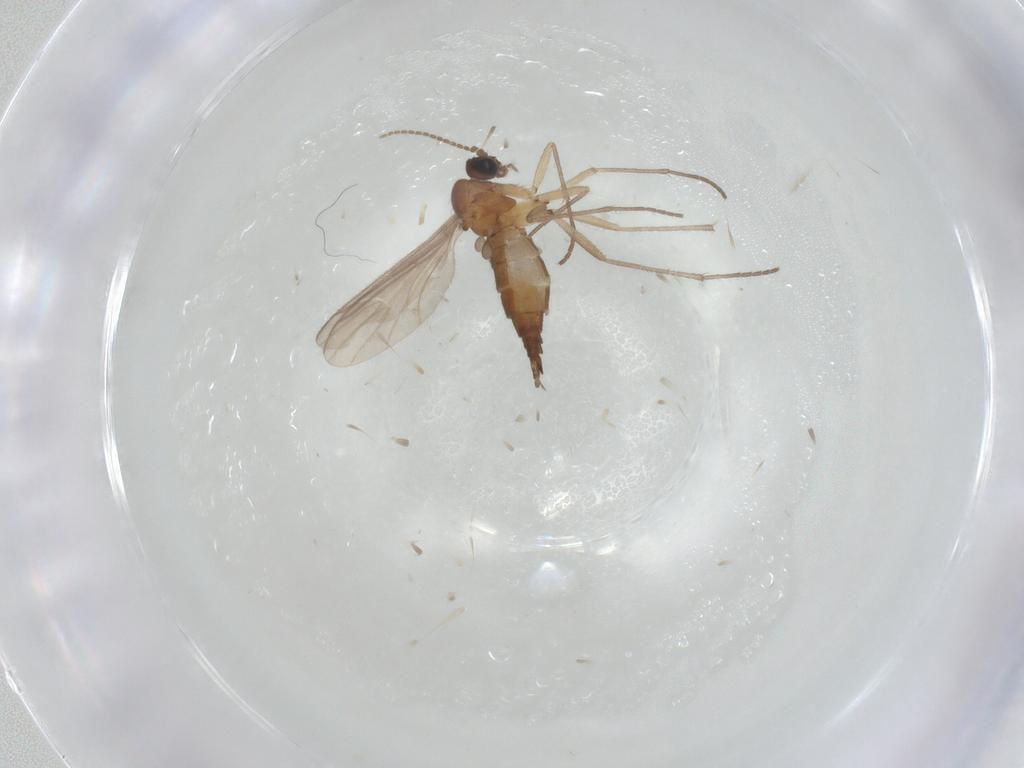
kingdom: Animalia
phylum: Arthropoda
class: Insecta
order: Diptera
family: Sciaridae
